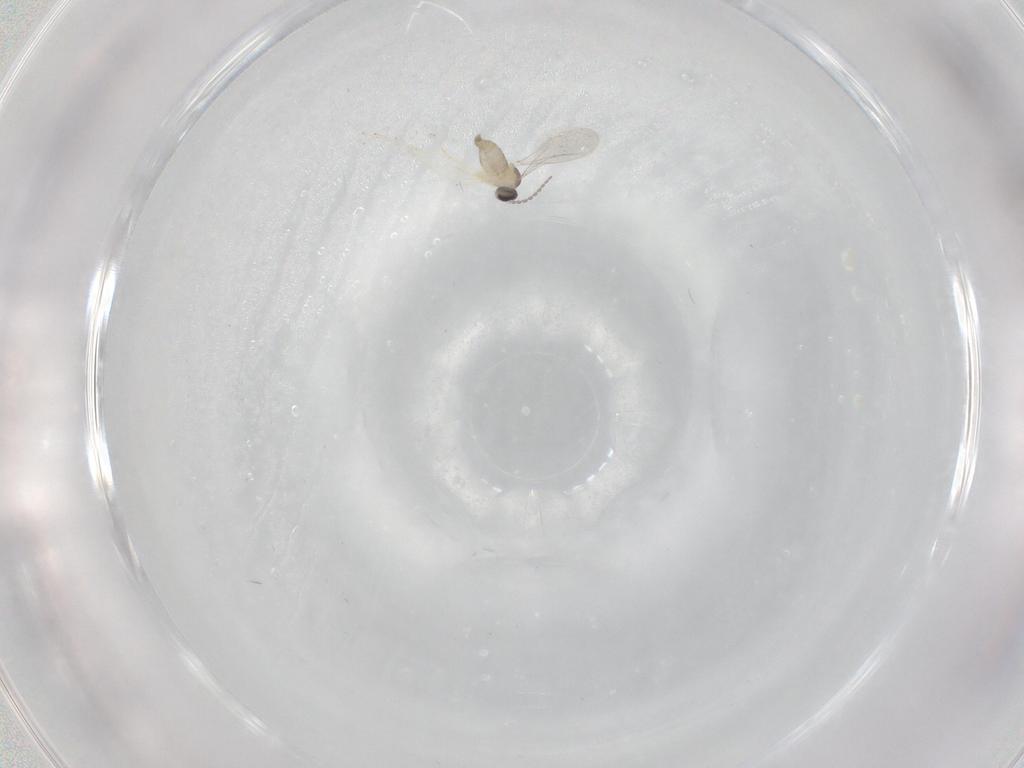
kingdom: Animalia
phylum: Arthropoda
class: Insecta
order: Diptera
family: Cecidomyiidae
